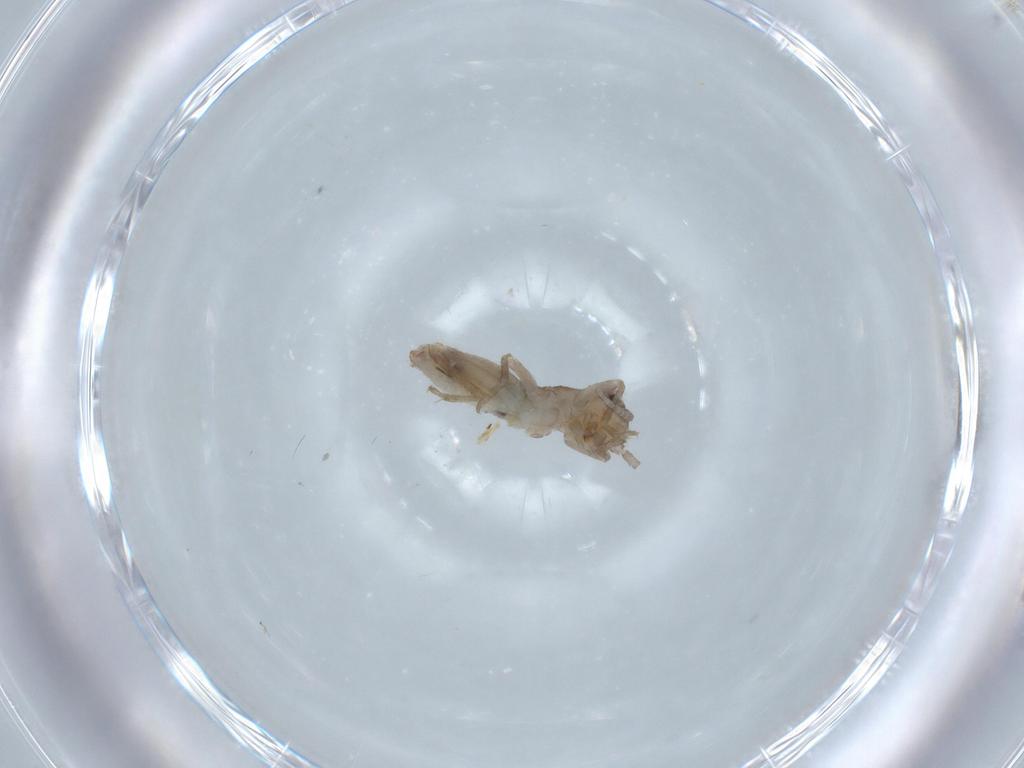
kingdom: Animalia
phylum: Arthropoda
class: Insecta
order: Orthoptera
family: Mogoplistidae
